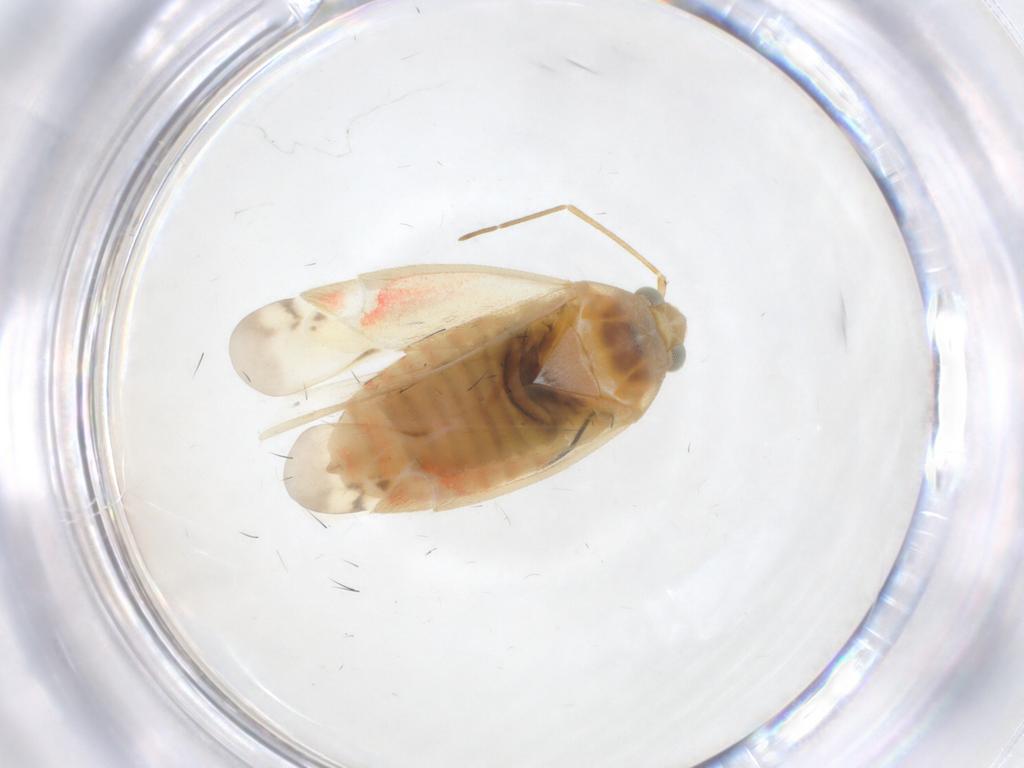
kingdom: Animalia
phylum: Arthropoda
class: Insecta
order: Hemiptera
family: Miridae
